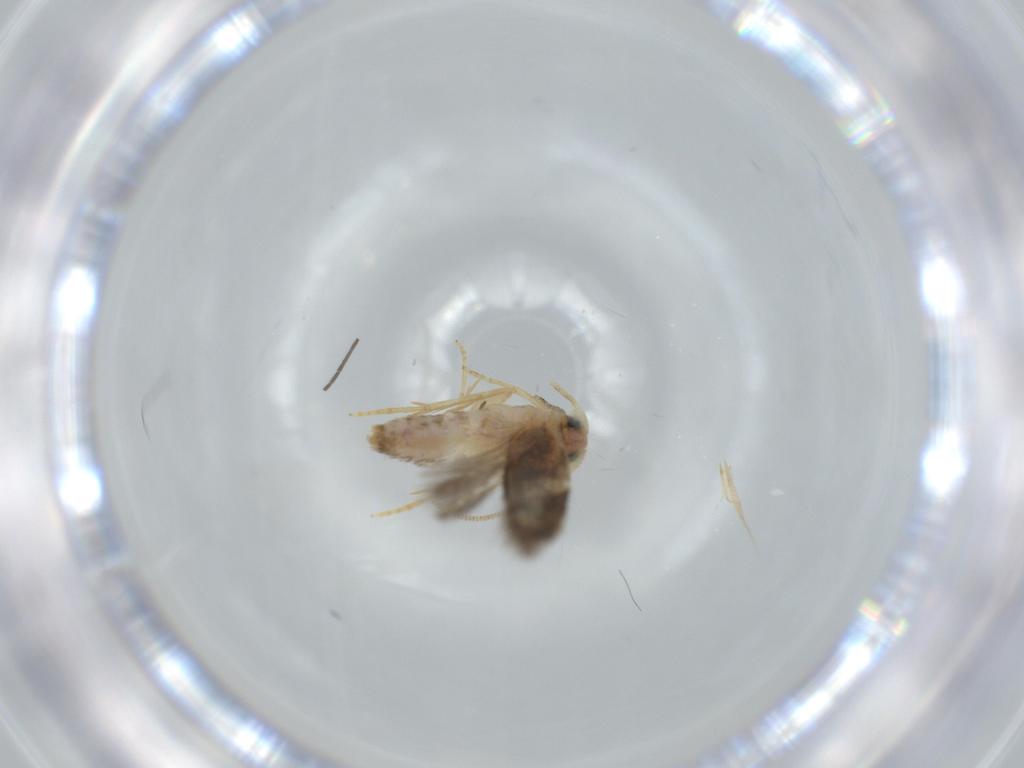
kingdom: Animalia
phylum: Arthropoda
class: Insecta
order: Lepidoptera
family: Nepticulidae
